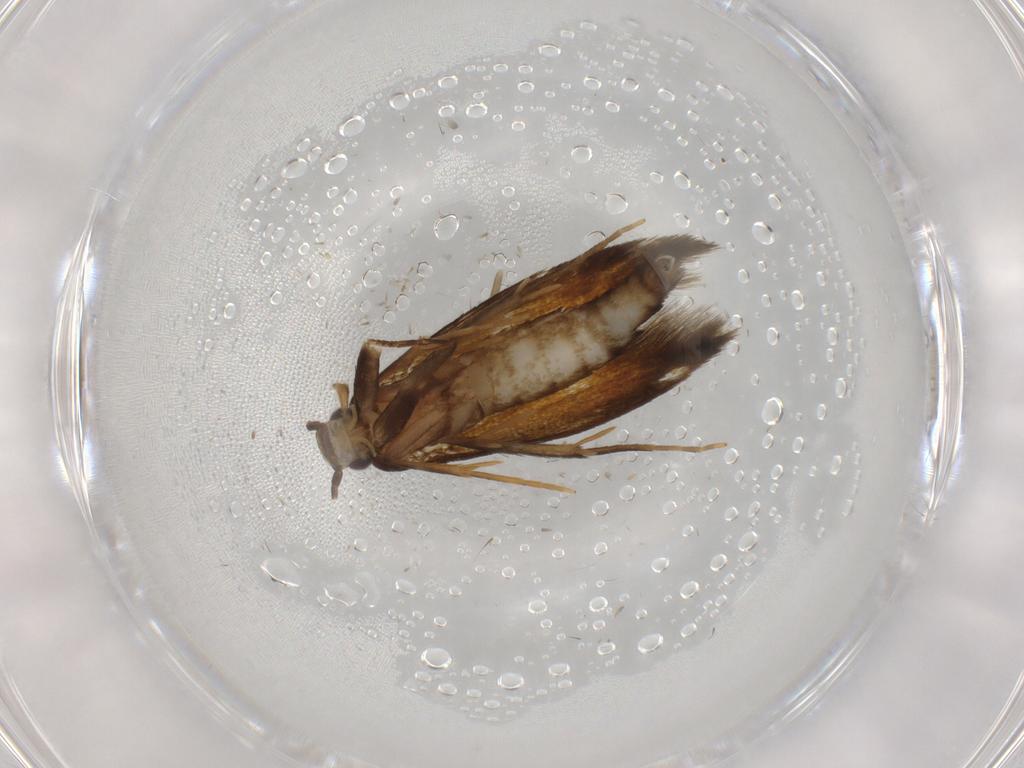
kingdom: Animalia
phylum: Arthropoda
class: Insecta
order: Lepidoptera
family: Tineidae
